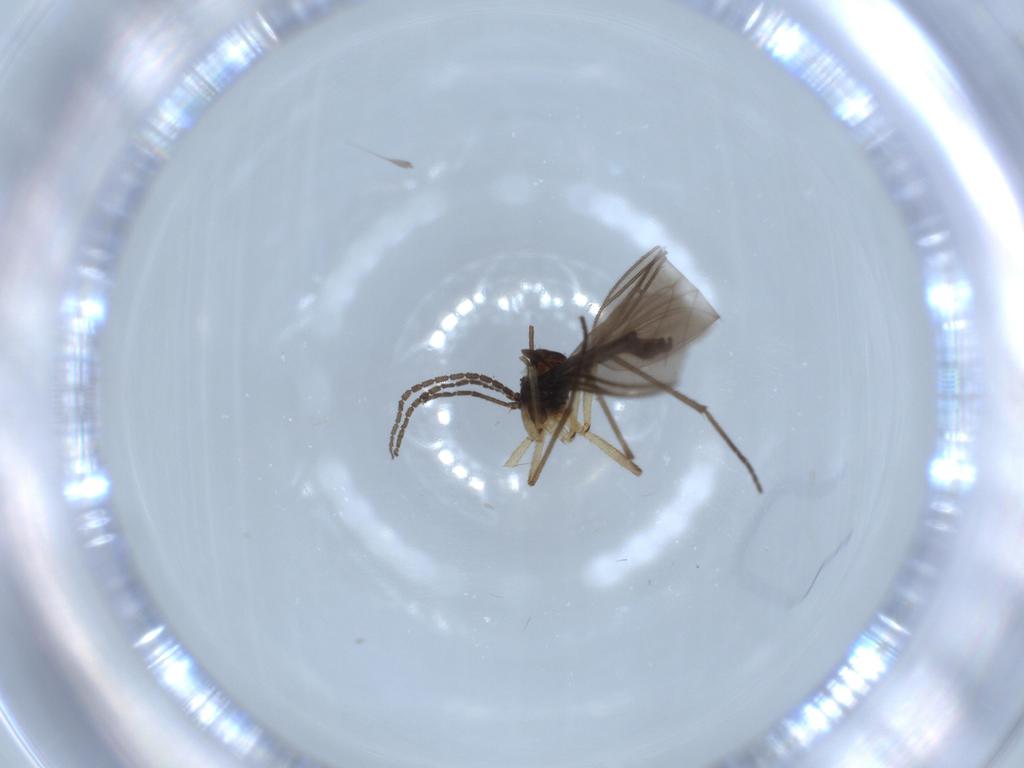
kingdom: Animalia
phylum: Arthropoda
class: Insecta
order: Diptera
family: Sciaridae
